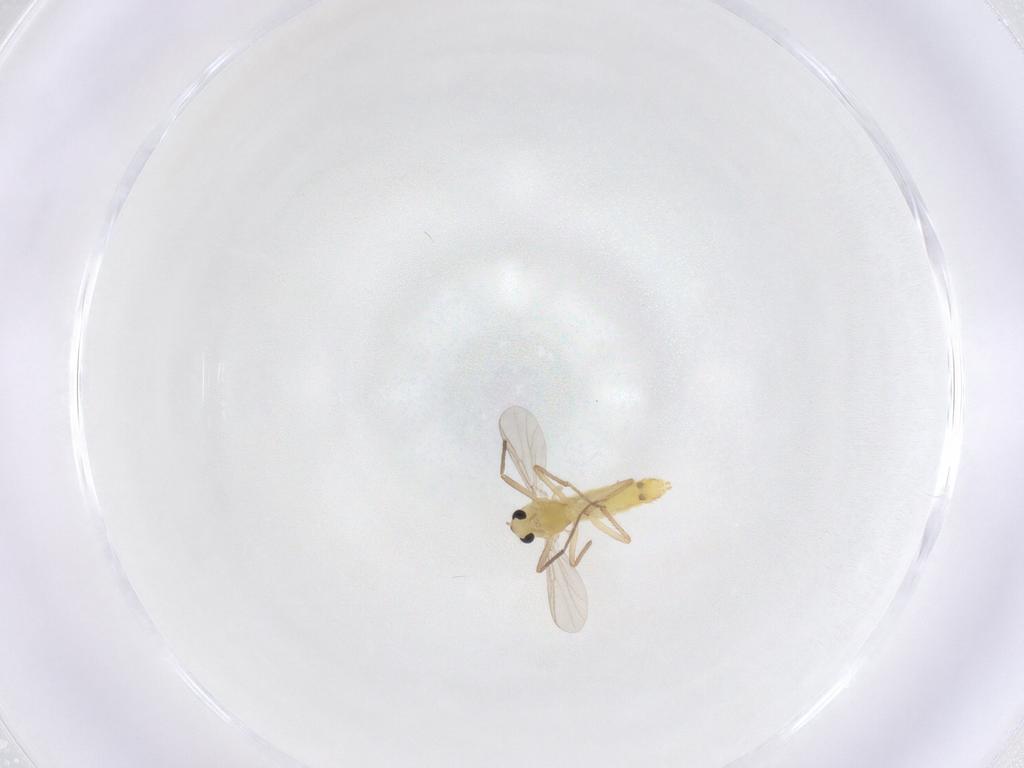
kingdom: Animalia
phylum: Arthropoda
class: Insecta
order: Diptera
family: Chironomidae
